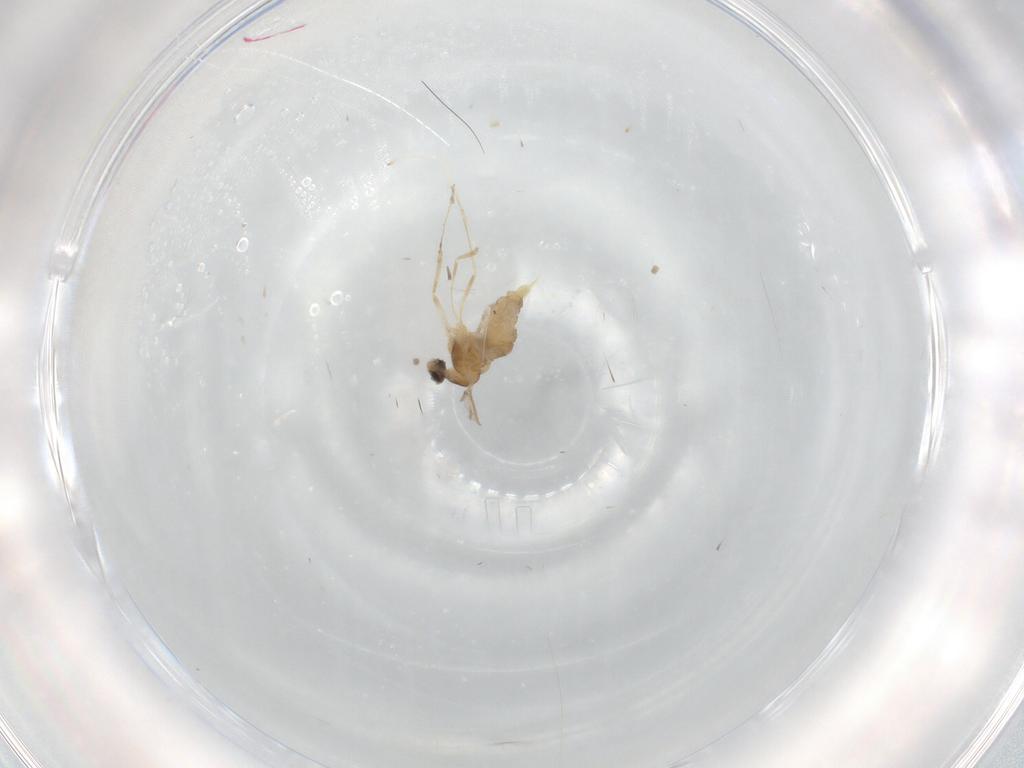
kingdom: Animalia
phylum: Arthropoda
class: Insecta
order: Diptera
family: Cecidomyiidae
